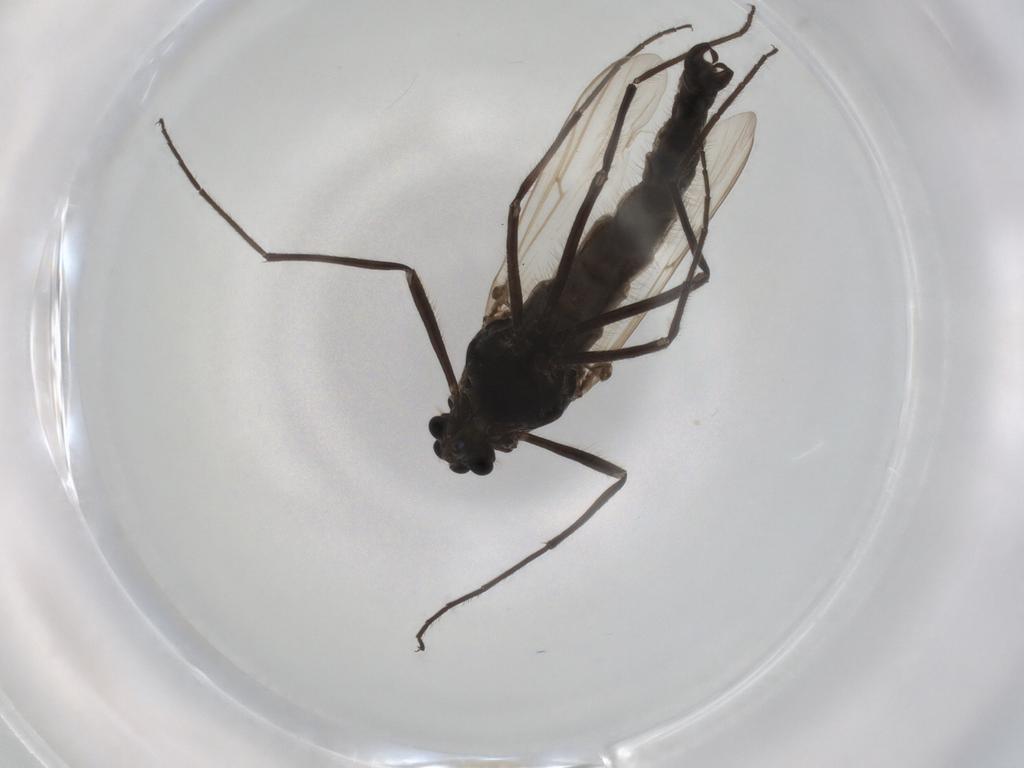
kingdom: Animalia
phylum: Arthropoda
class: Insecta
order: Diptera
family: Chironomidae
